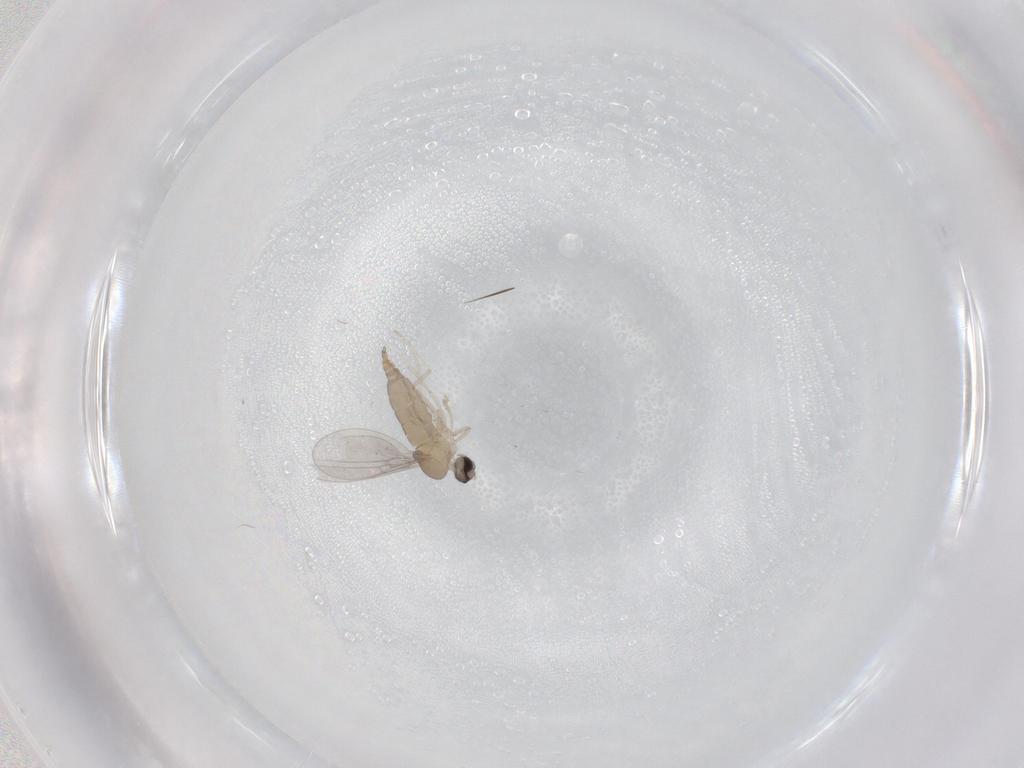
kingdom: Animalia
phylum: Arthropoda
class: Insecta
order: Diptera
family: Cecidomyiidae
